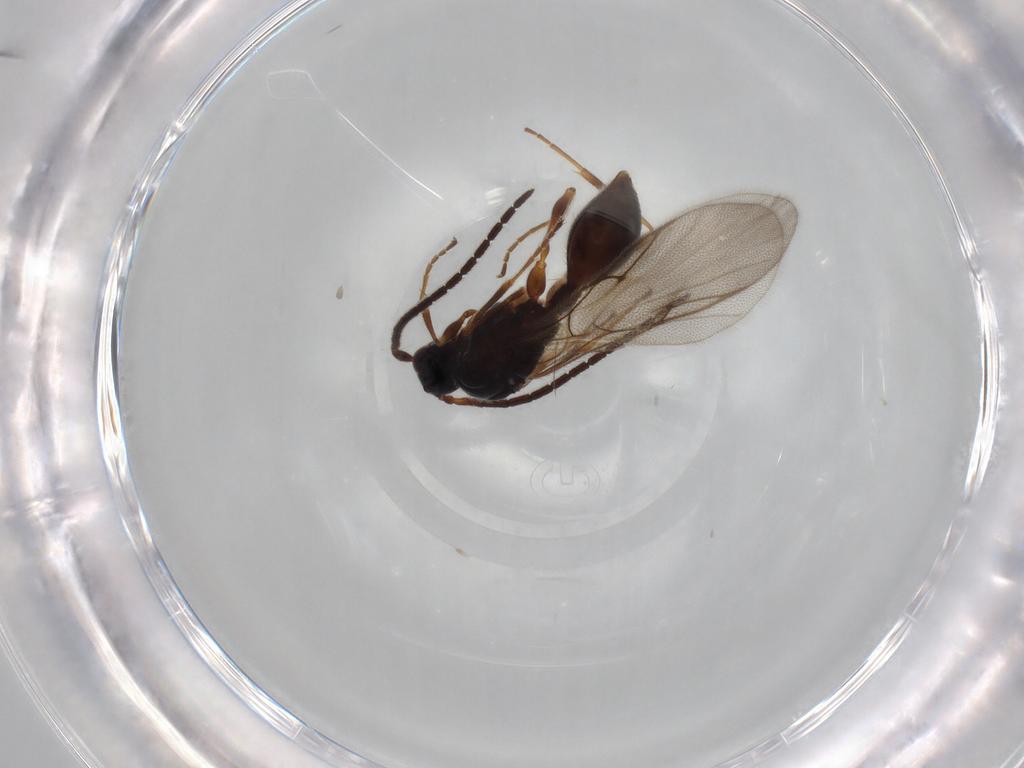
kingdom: Animalia
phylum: Arthropoda
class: Insecta
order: Hymenoptera
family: Vespidae
